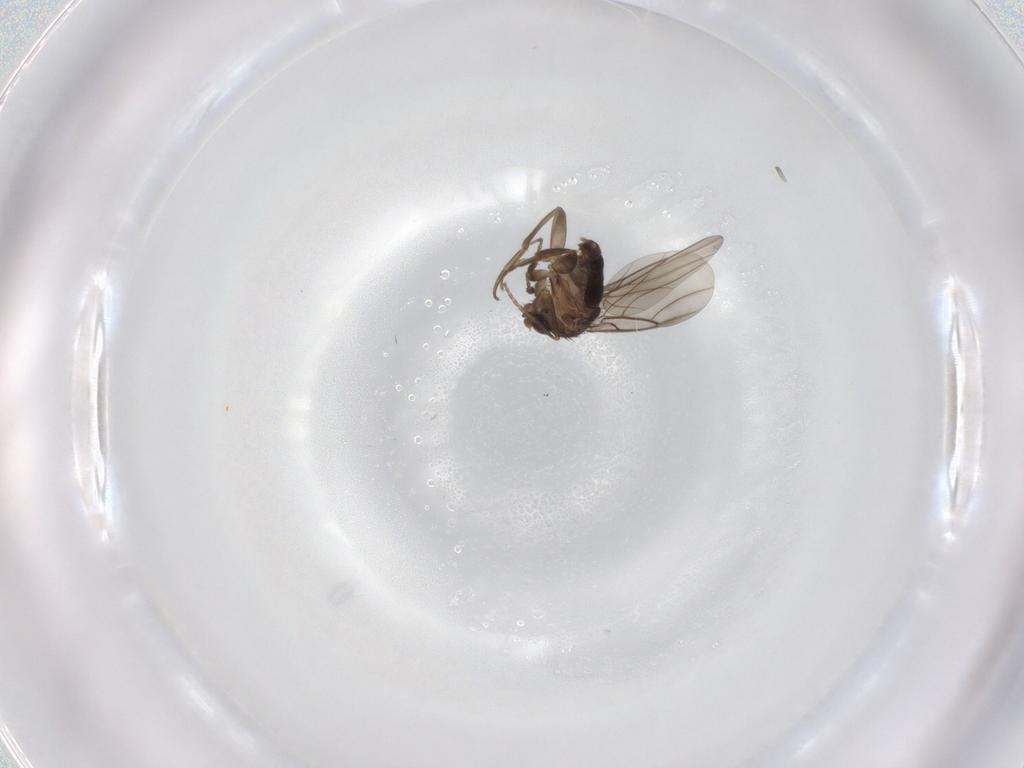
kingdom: Animalia
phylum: Arthropoda
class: Insecta
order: Diptera
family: Phoridae
